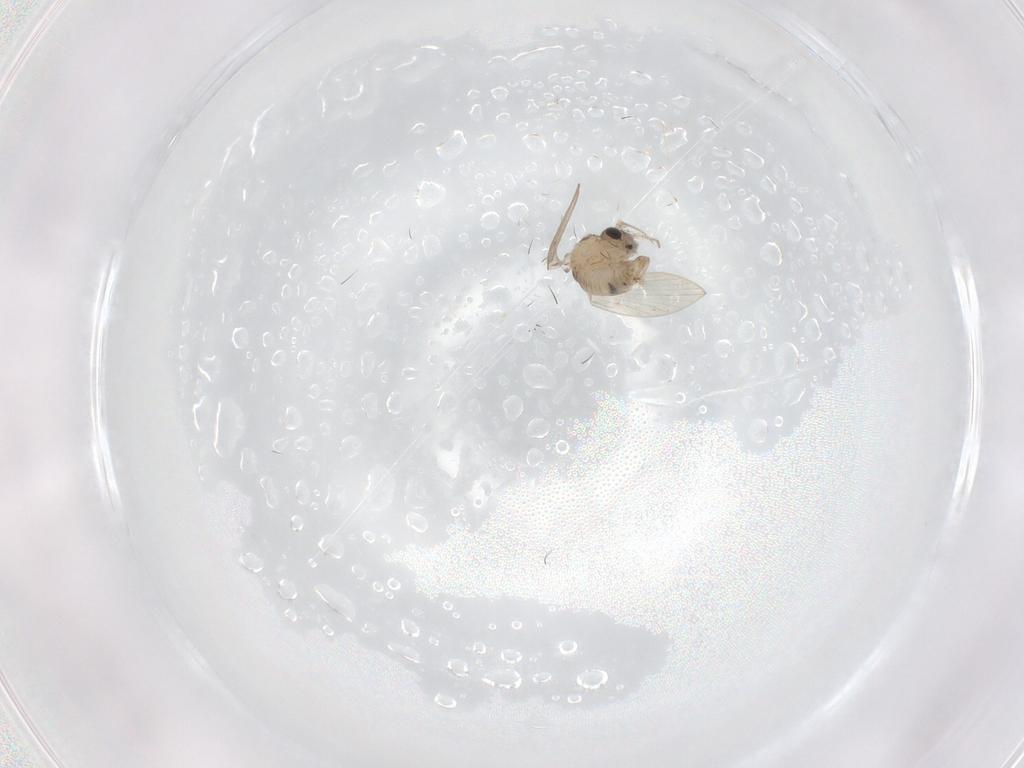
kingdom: Animalia
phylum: Arthropoda
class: Insecta
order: Diptera
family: Psychodidae
